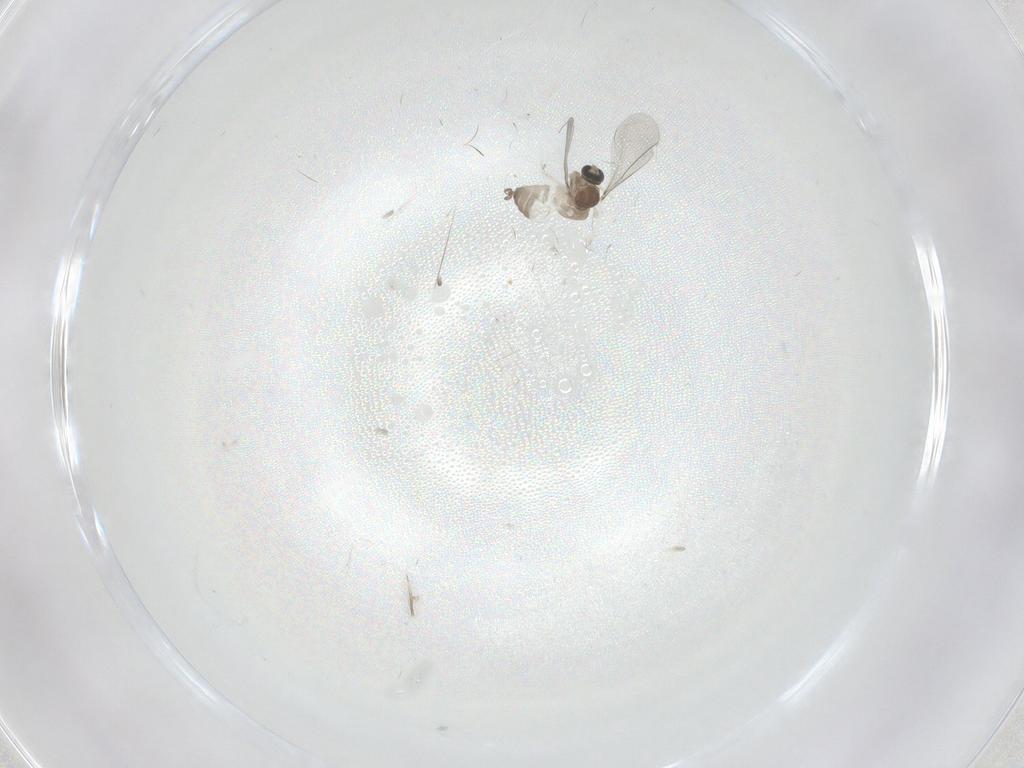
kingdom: Animalia
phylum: Arthropoda
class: Insecta
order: Diptera
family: Cecidomyiidae
